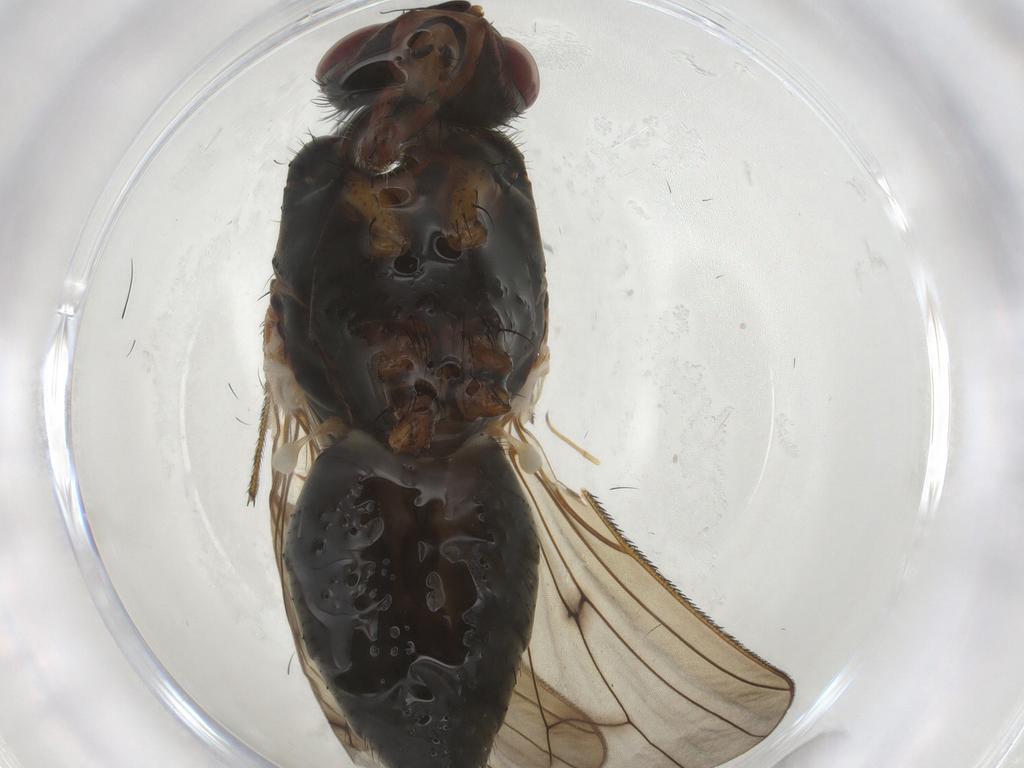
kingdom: Animalia
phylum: Arthropoda
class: Insecta
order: Diptera
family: Anthomyiidae
